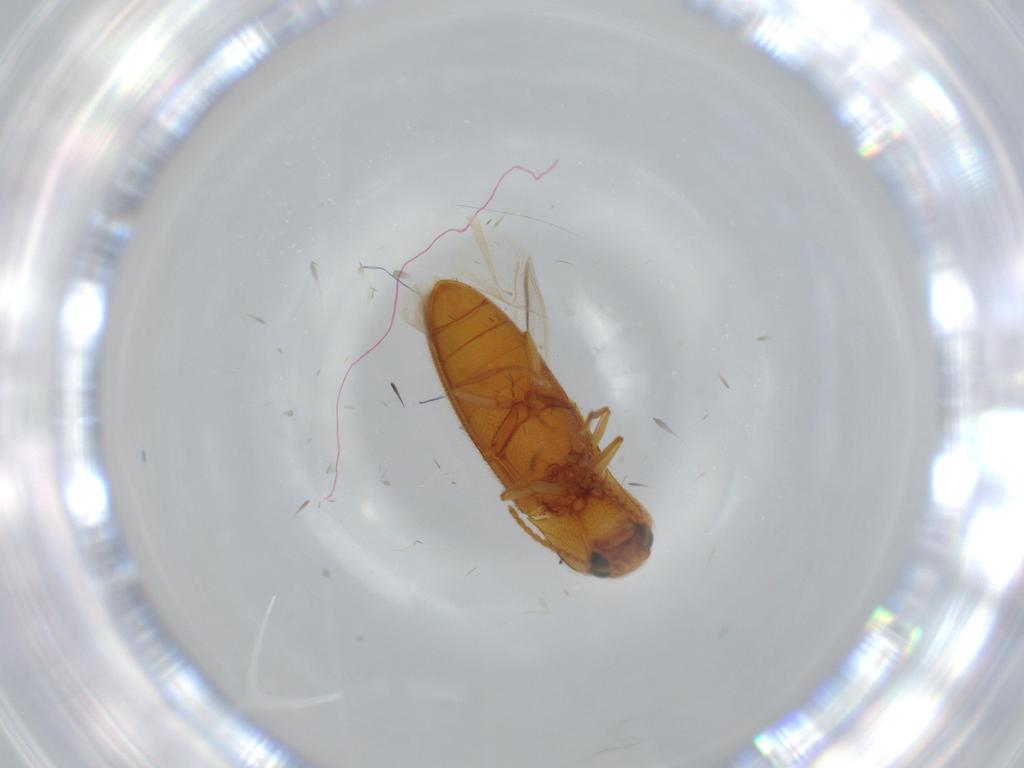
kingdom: Animalia
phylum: Arthropoda
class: Insecta
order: Coleoptera
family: Elateridae
